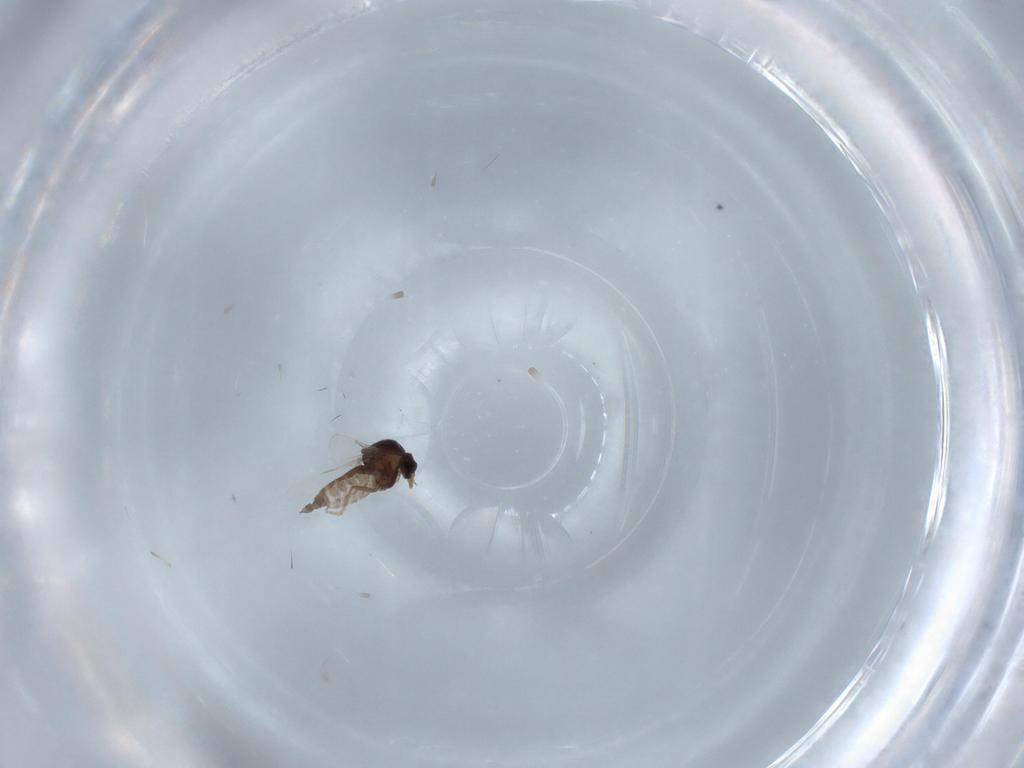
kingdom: Animalia
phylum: Arthropoda
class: Insecta
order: Diptera
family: Ceratopogonidae
